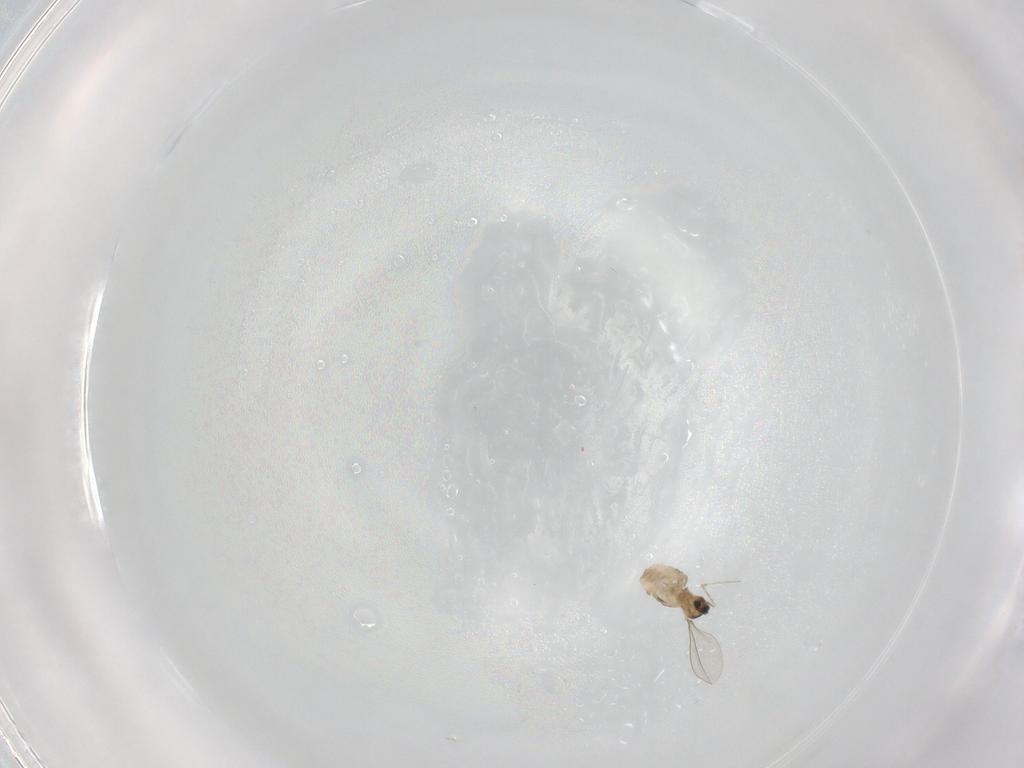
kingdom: Animalia
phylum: Arthropoda
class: Insecta
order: Diptera
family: Cecidomyiidae
